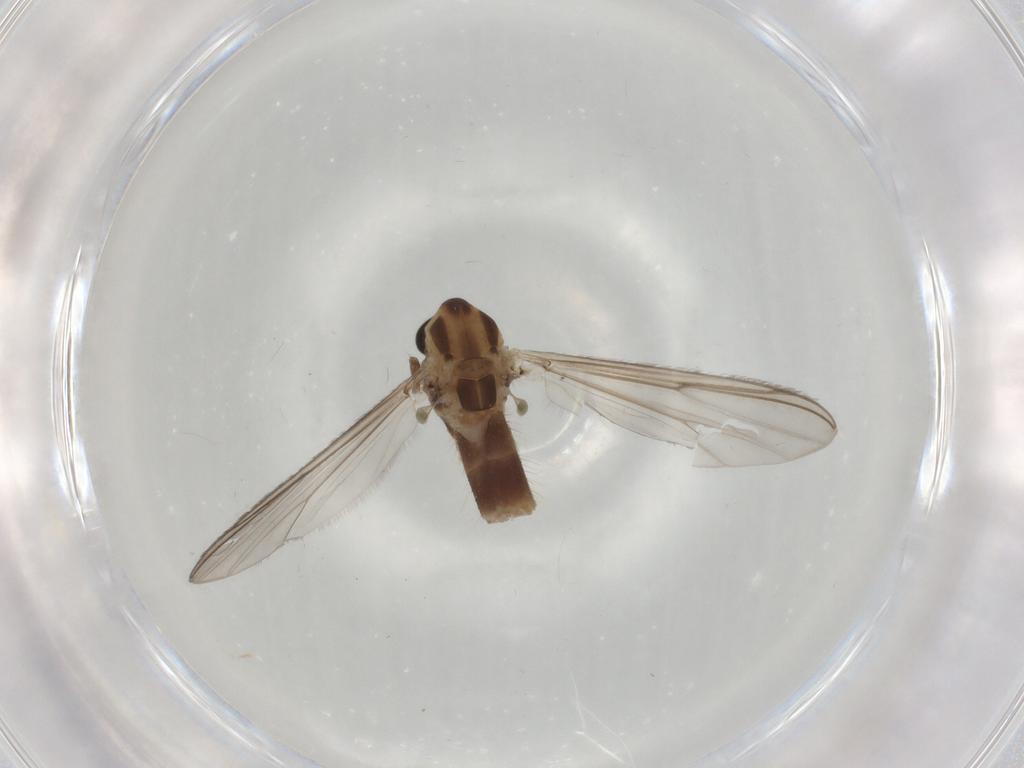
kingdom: Animalia
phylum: Arthropoda
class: Insecta
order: Diptera
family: Chironomidae
